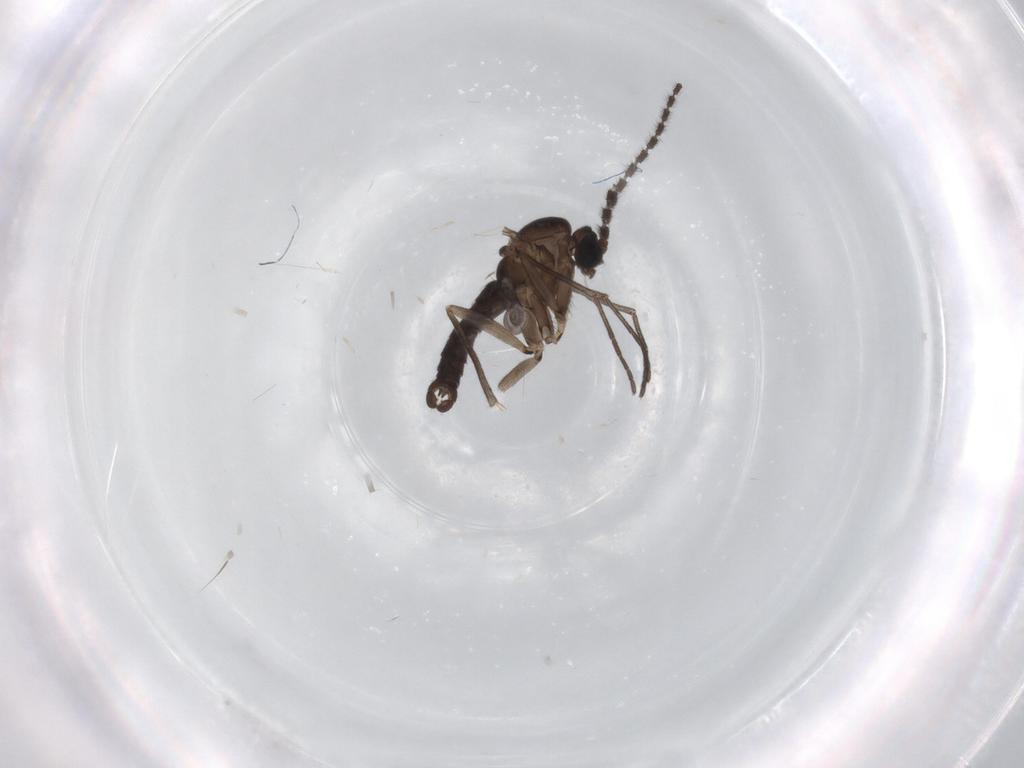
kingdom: Animalia
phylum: Arthropoda
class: Insecta
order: Diptera
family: Sciaridae
